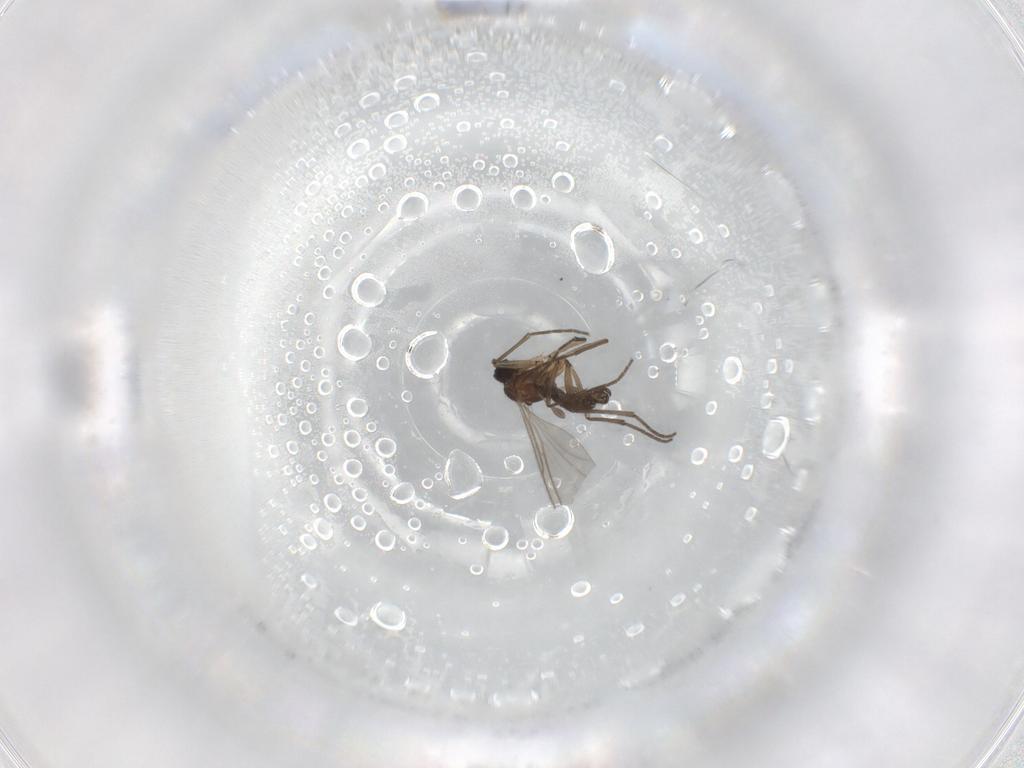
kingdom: Animalia
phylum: Arthropoda
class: Insecta
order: Diptera
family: Sciaridae
